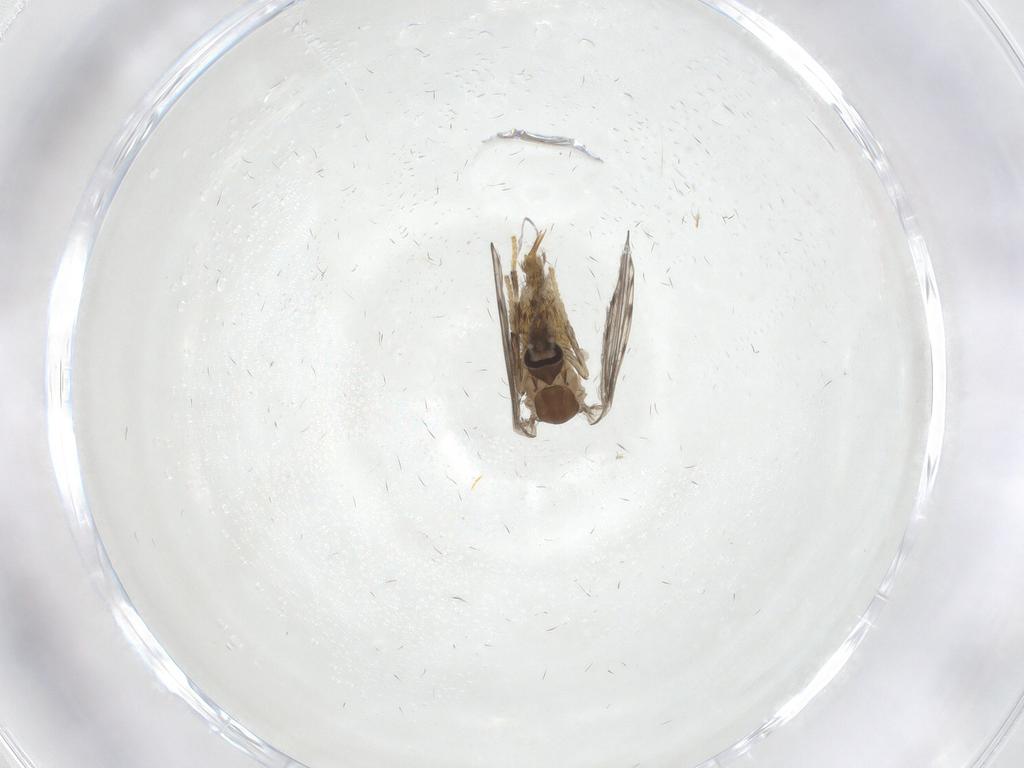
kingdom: Animalia
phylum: Arthropoda
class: Insecta
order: Diptera
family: Psychodidae
